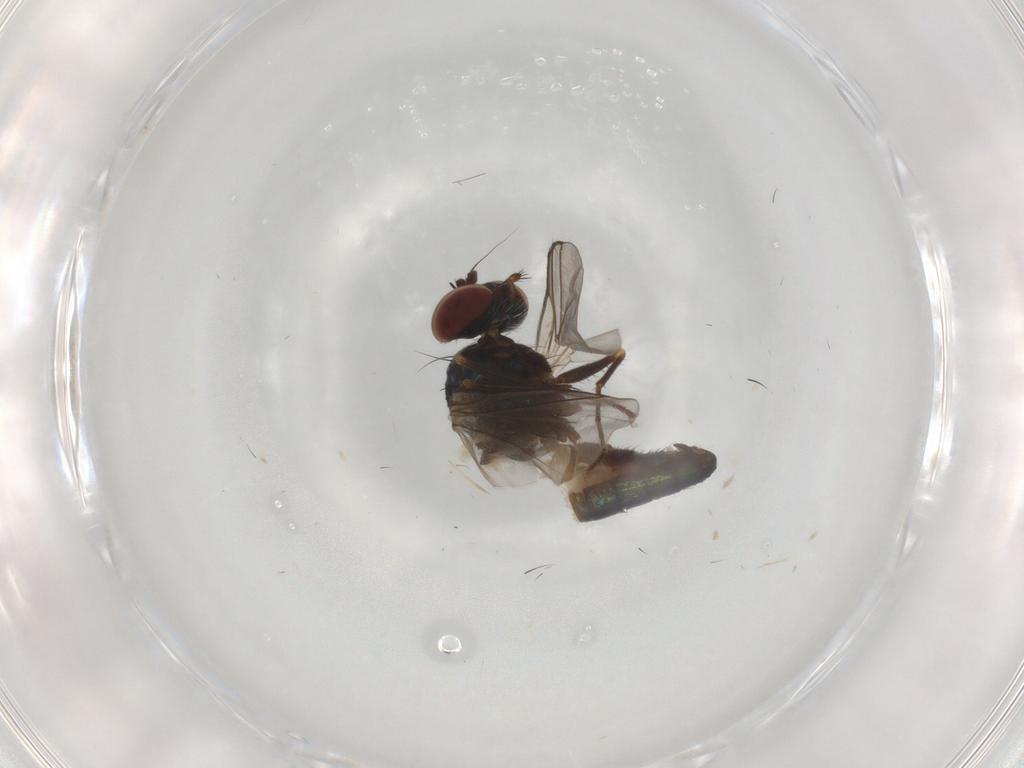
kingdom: Animalia
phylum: Arthropoda
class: Insecta
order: Diptera
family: Dolichopodidae
